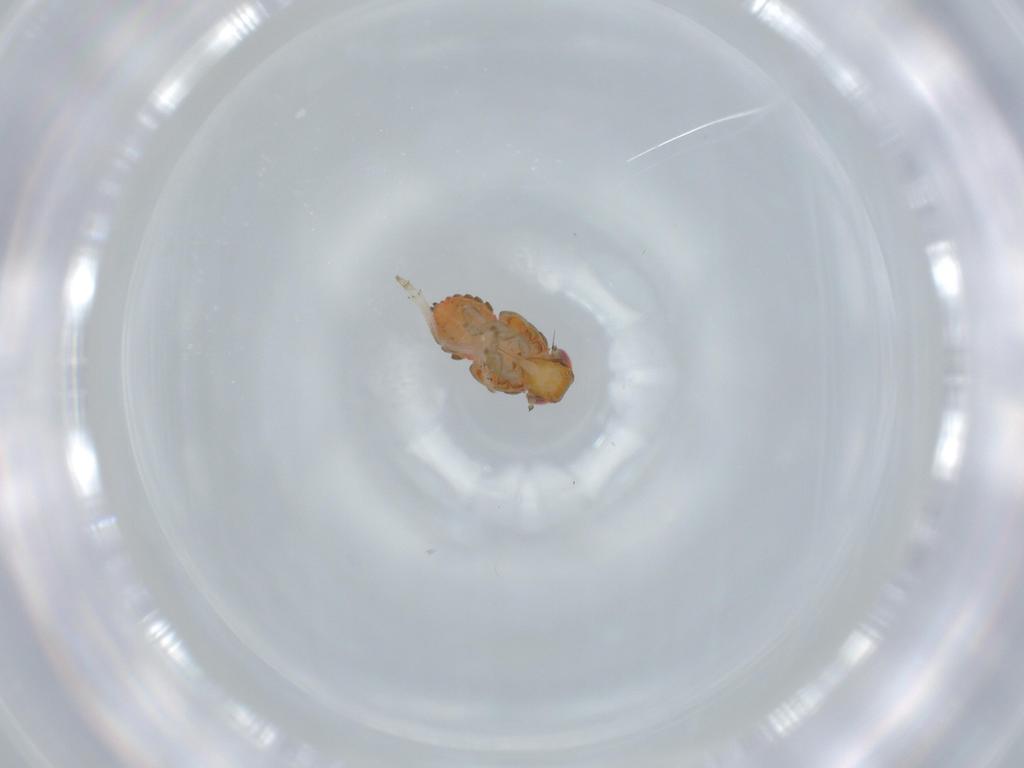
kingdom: Animalia
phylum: Arthropoda
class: Insecta
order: Hemiptera
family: Issidae
